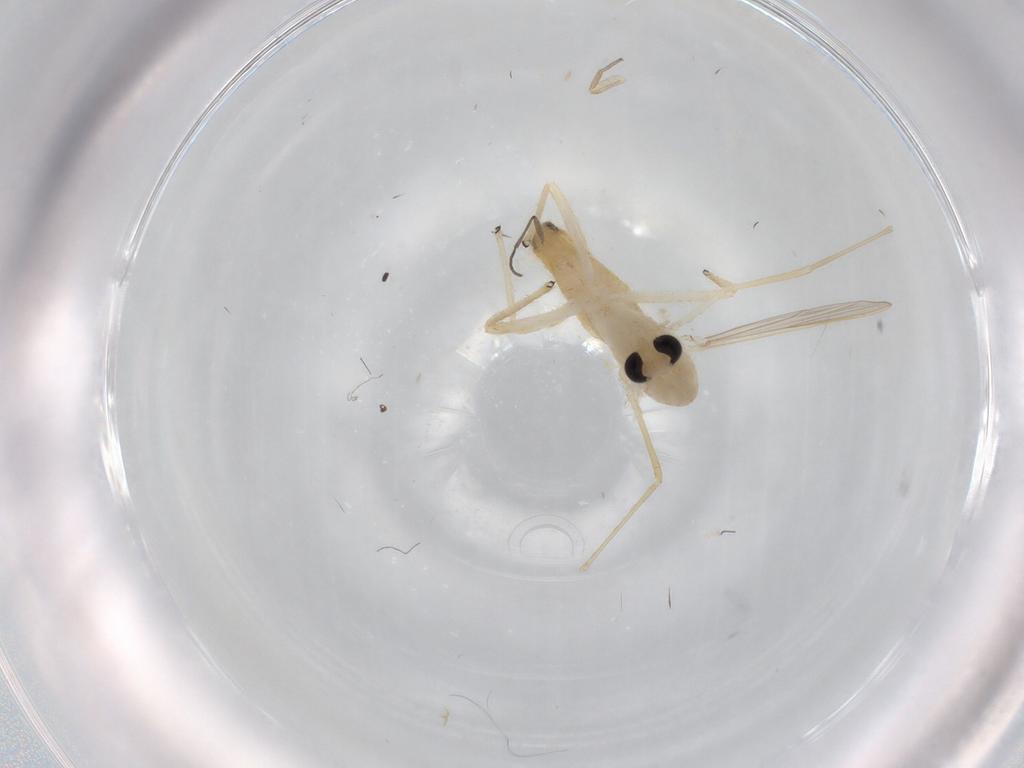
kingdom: Animalia
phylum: Arthropoda
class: Insecta
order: Diptera
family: Chironomidae
